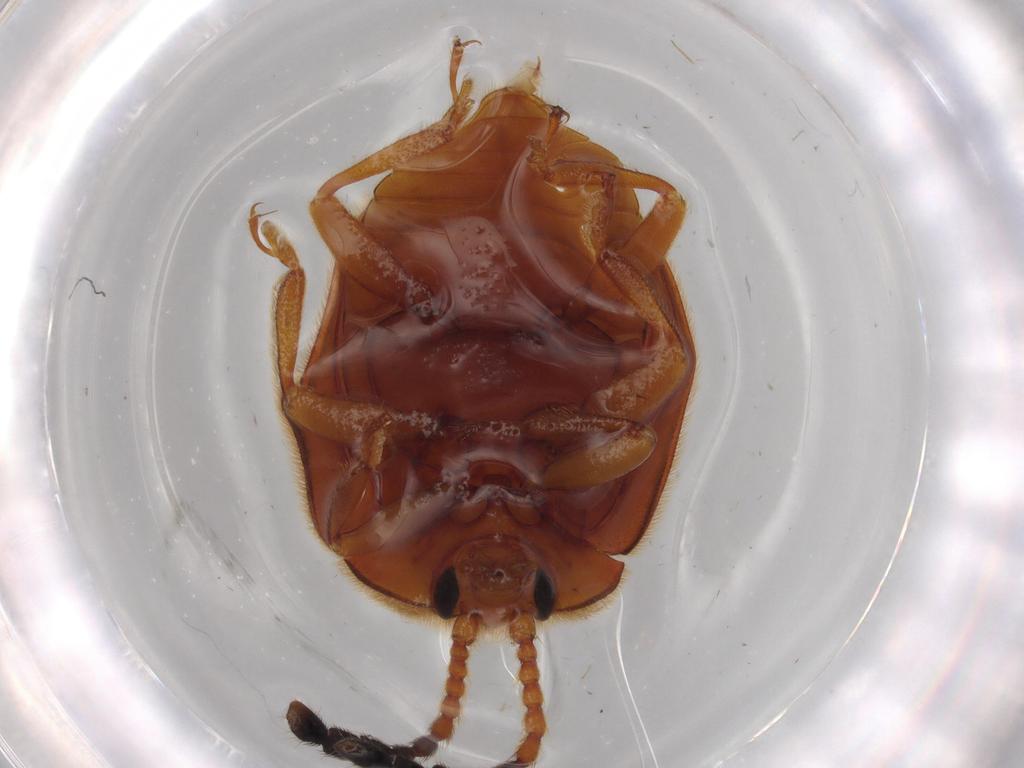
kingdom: Animalia
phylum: Arthropoda
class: Insecta
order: Coleoptera
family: Endomychidae
